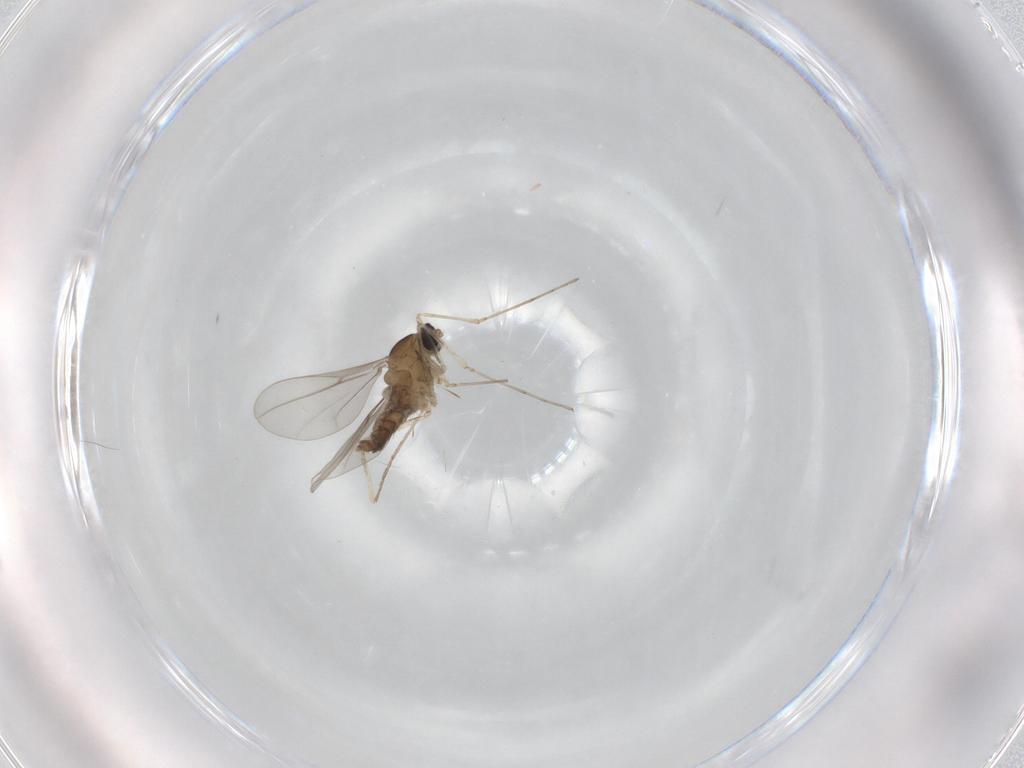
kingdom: Animalia
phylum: Arthropoda
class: Insecta
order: Diptera
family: Cecidomyiidae
